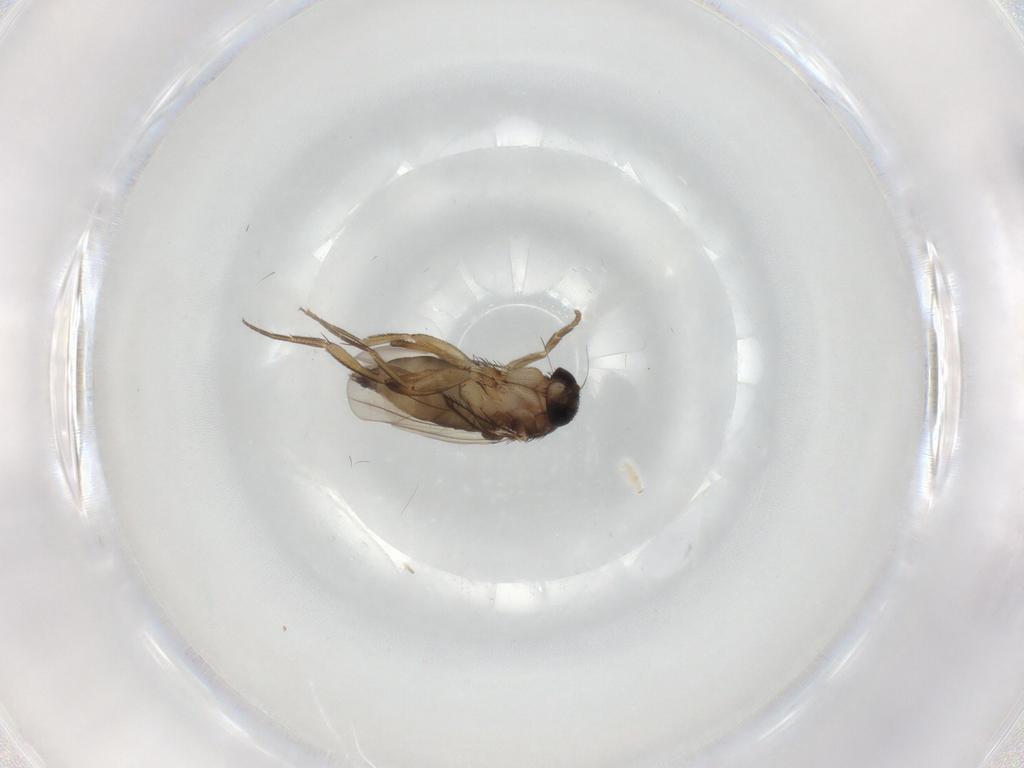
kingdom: Animalia
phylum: Arthropoda
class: Insecta
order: Diptera
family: Phoridae
